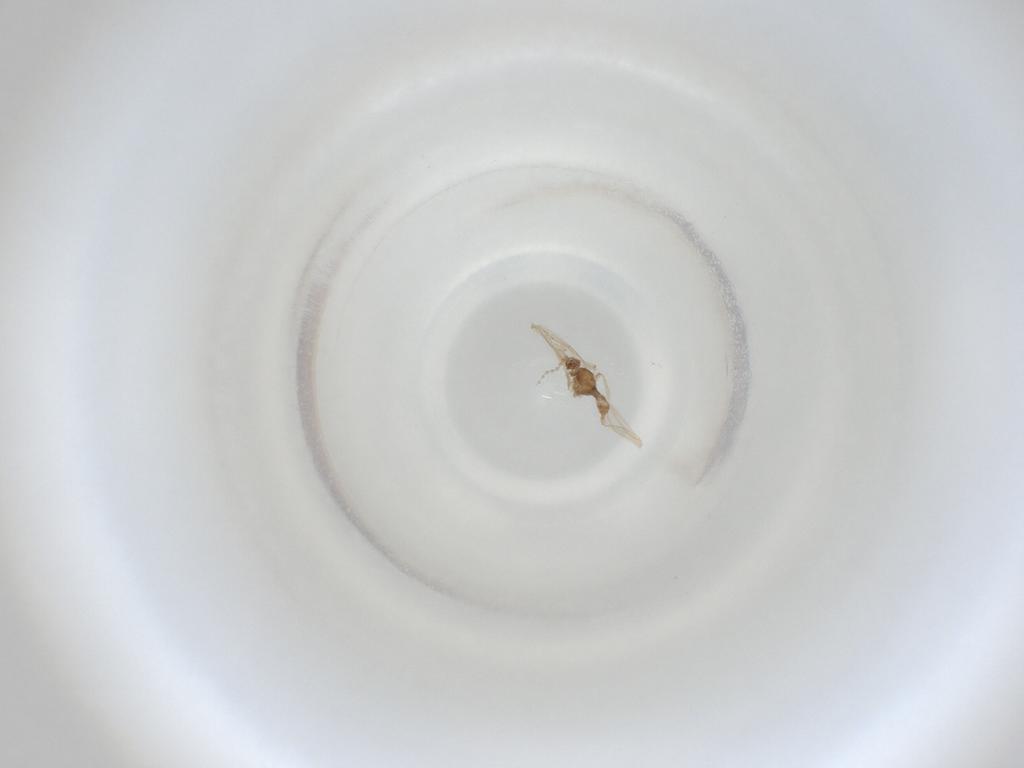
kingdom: Animalia
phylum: Arthropoda
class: Insecta
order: Diptera
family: Cecidomyiidae
